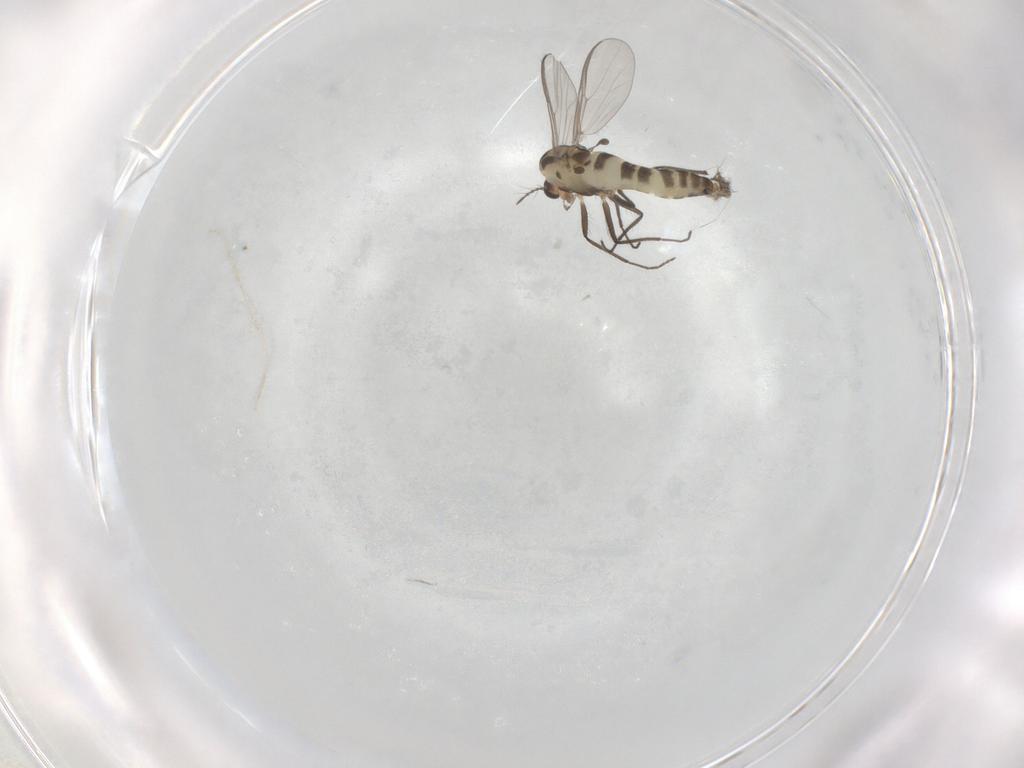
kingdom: Animalia
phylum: Arthropoda
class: Insecta
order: Diptera
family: Chironomidae
